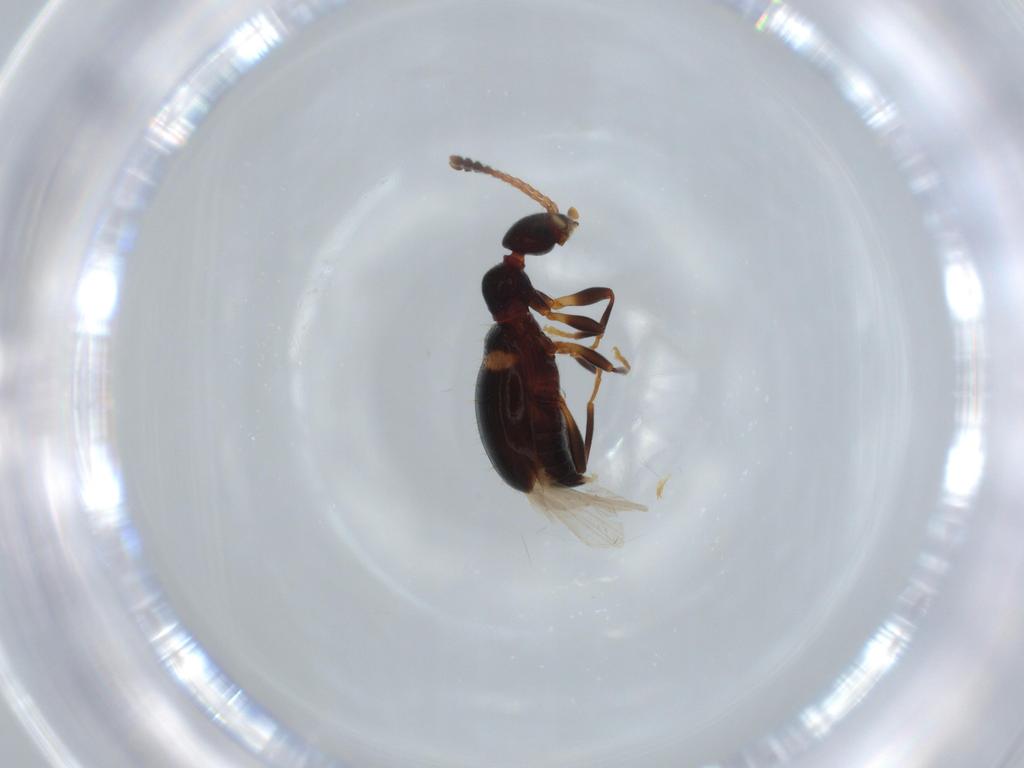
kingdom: Animalia
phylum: Arthropoda
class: Insecta
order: Coleoptera
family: Anthicidae
